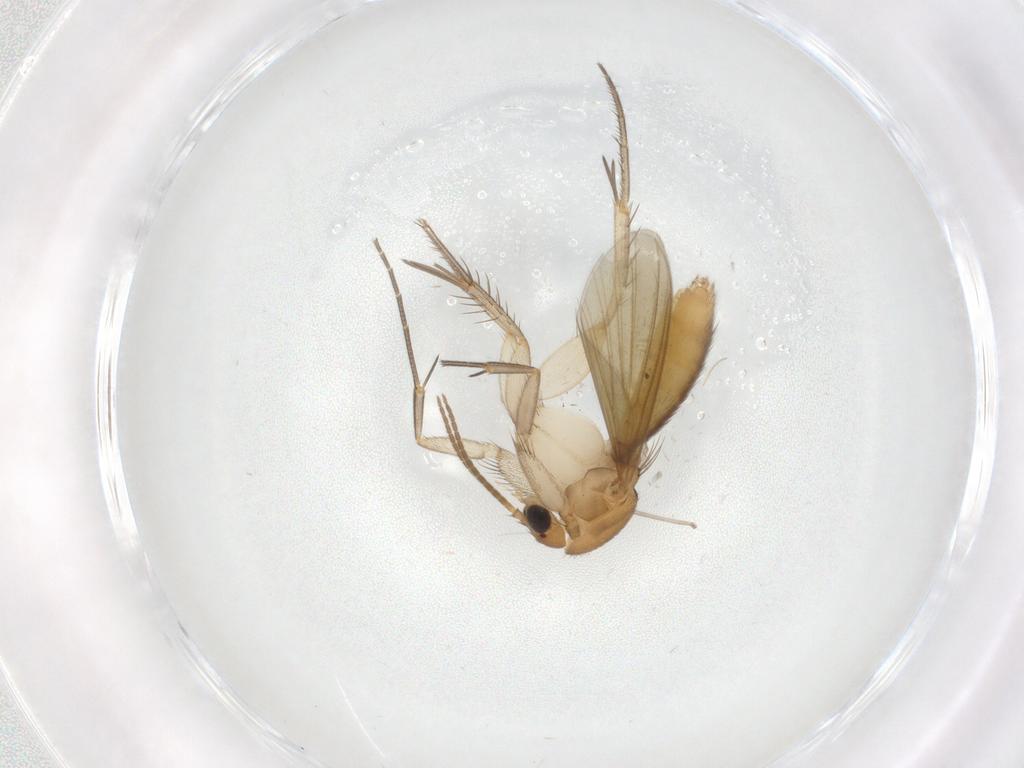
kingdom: Animalia
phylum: Arthropoda
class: Insecta
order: Diptera
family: Mycetophilidae
